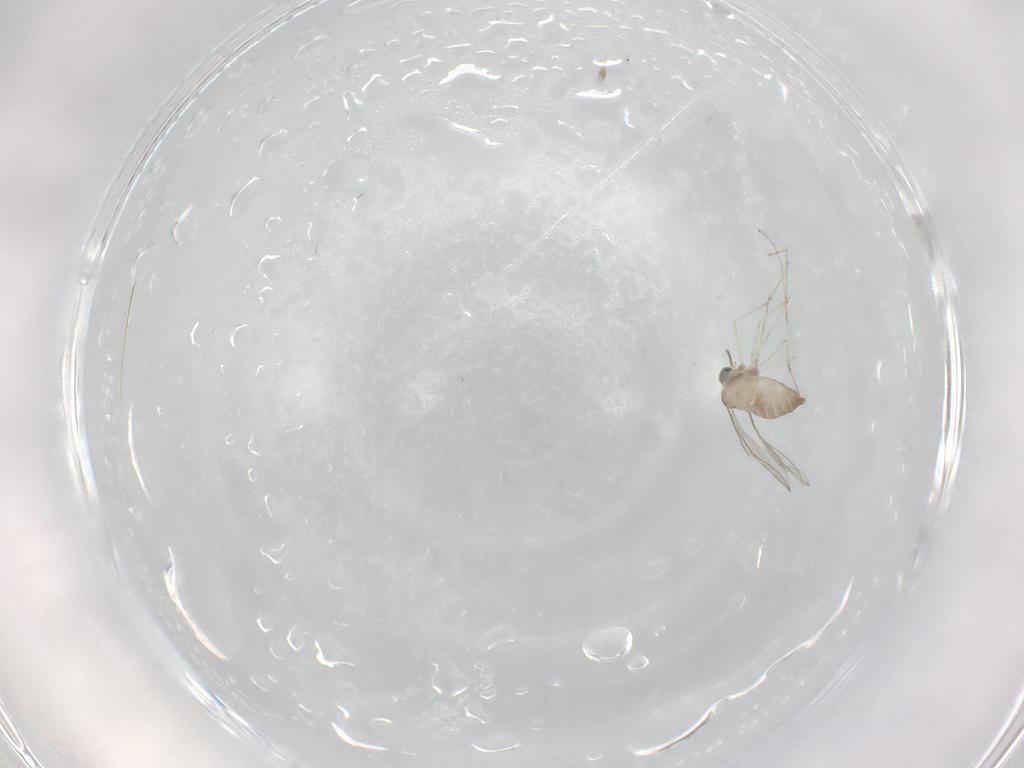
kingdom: Animalia
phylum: Arthropoda
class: Insecta
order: Diptera
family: Cecidomyiidae
